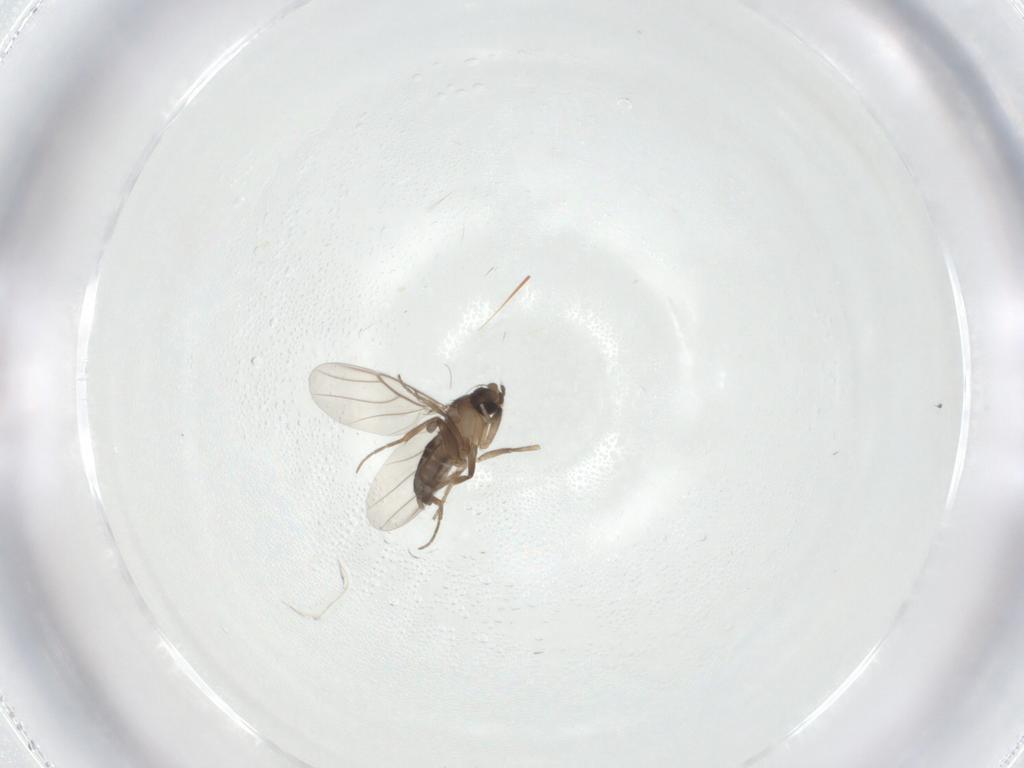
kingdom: Animalia
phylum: Arthropoda
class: Insecta
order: Diptera
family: Phoridae
